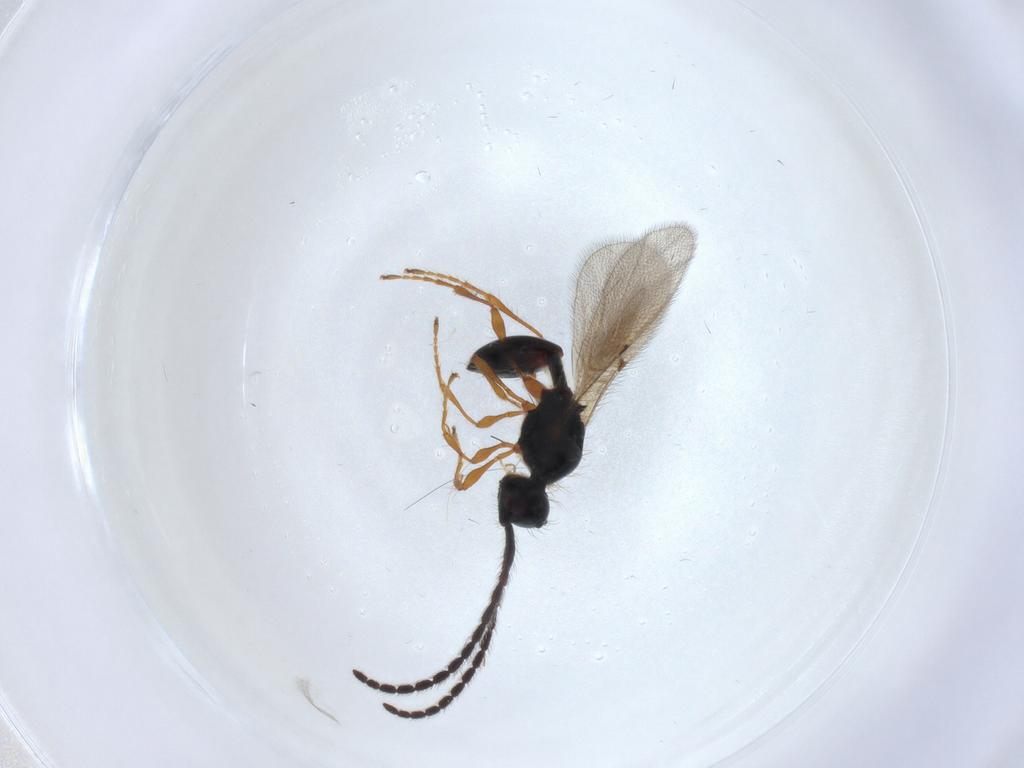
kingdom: Animalia
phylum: Arthropoda
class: Insecta
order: Hymenoptera
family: Diapriidae
